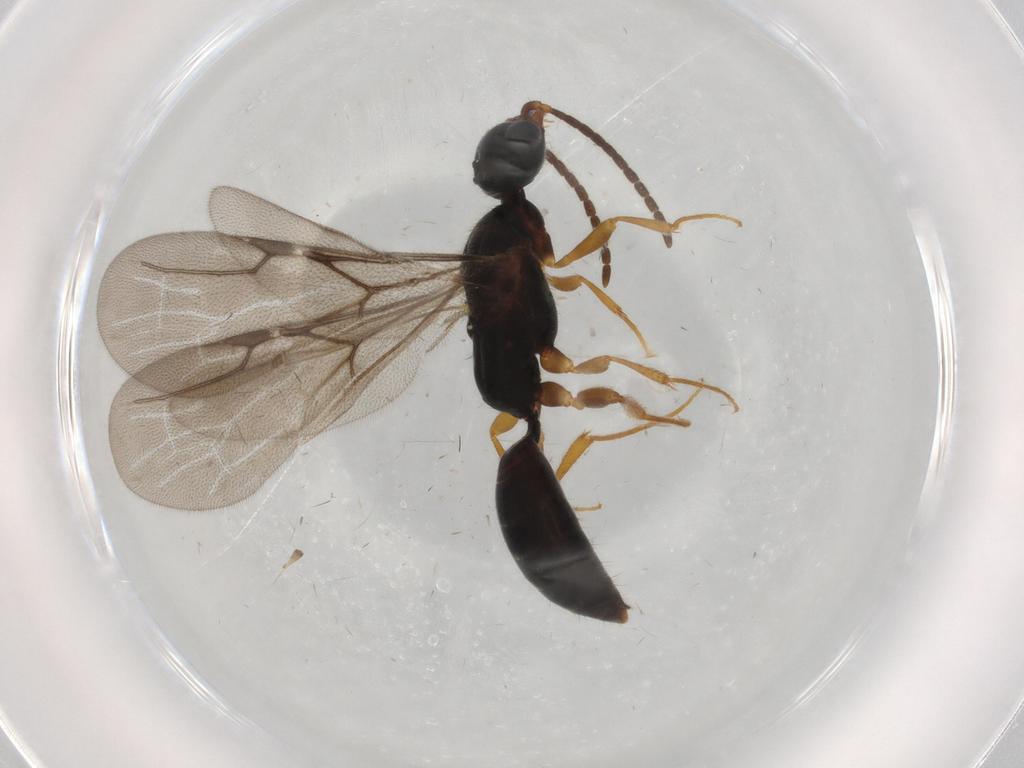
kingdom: Animalia
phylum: Arthropoda
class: Insecta
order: Hymenoptera
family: Bethylidae
